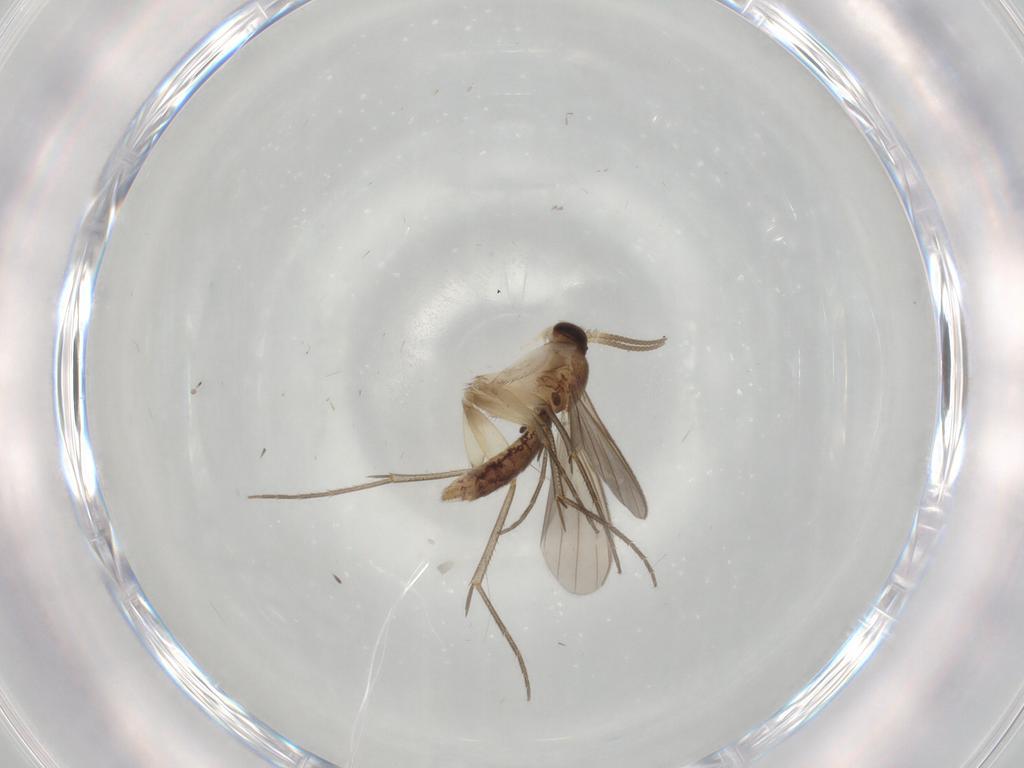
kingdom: Animalia
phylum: Arthropoda
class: Insecta
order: Diptera
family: Mycetophilidae
